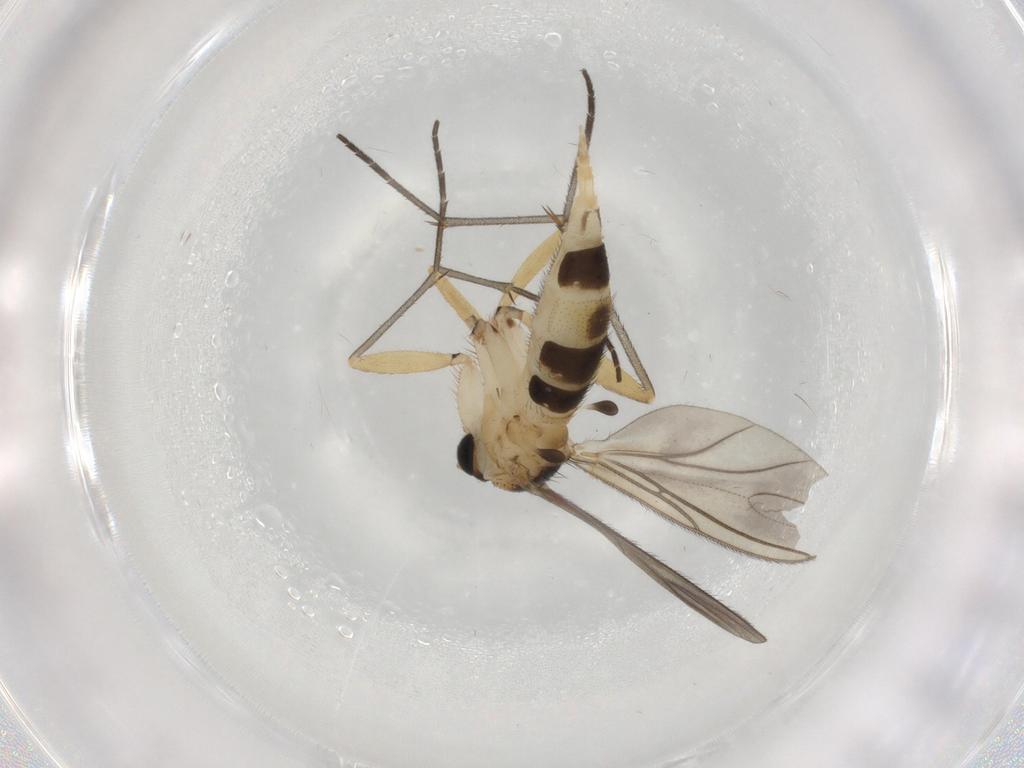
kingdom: Animalia
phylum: Arthropoda
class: Insecta
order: Diptera
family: Sciaridae
